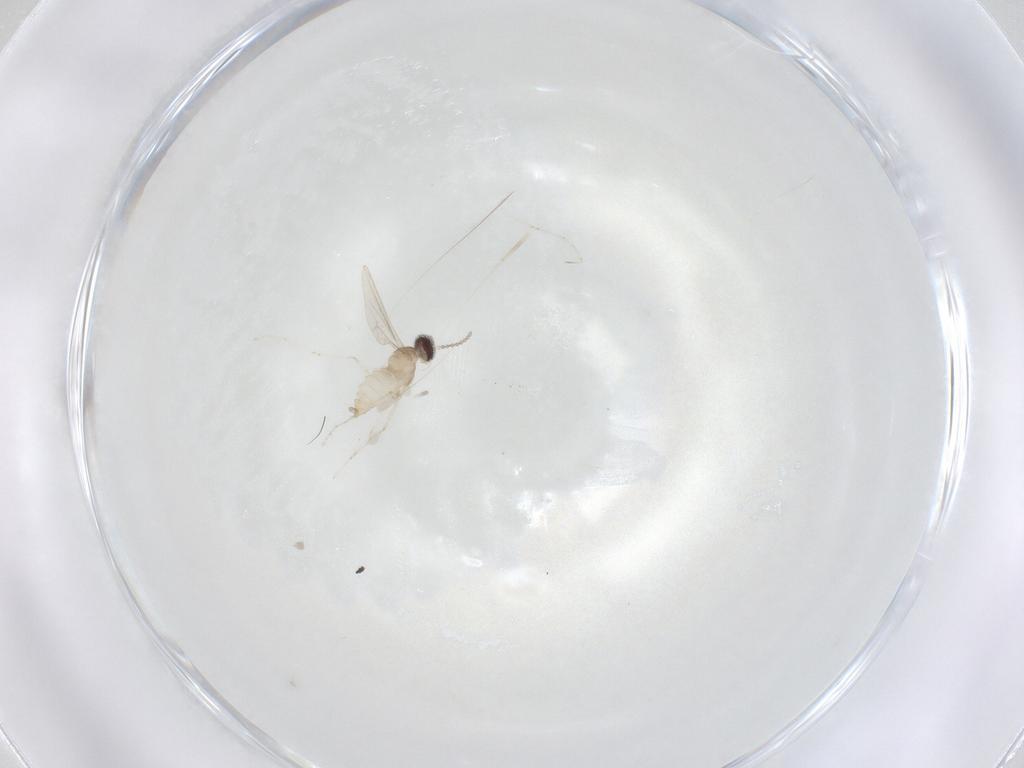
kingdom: Animalia
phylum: Arthropoda
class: Insecta
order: Diptera
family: Cecidomyiidae
